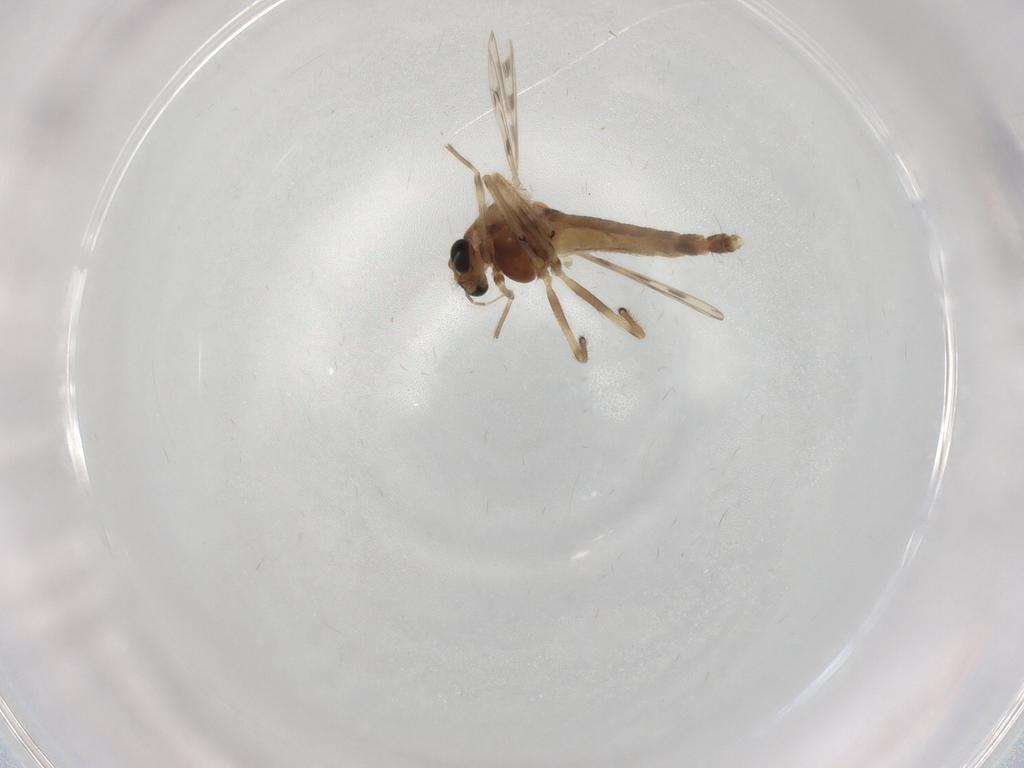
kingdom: Animalia
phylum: Arthropoda
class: Insecta
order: Diptera
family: Chironomidae
